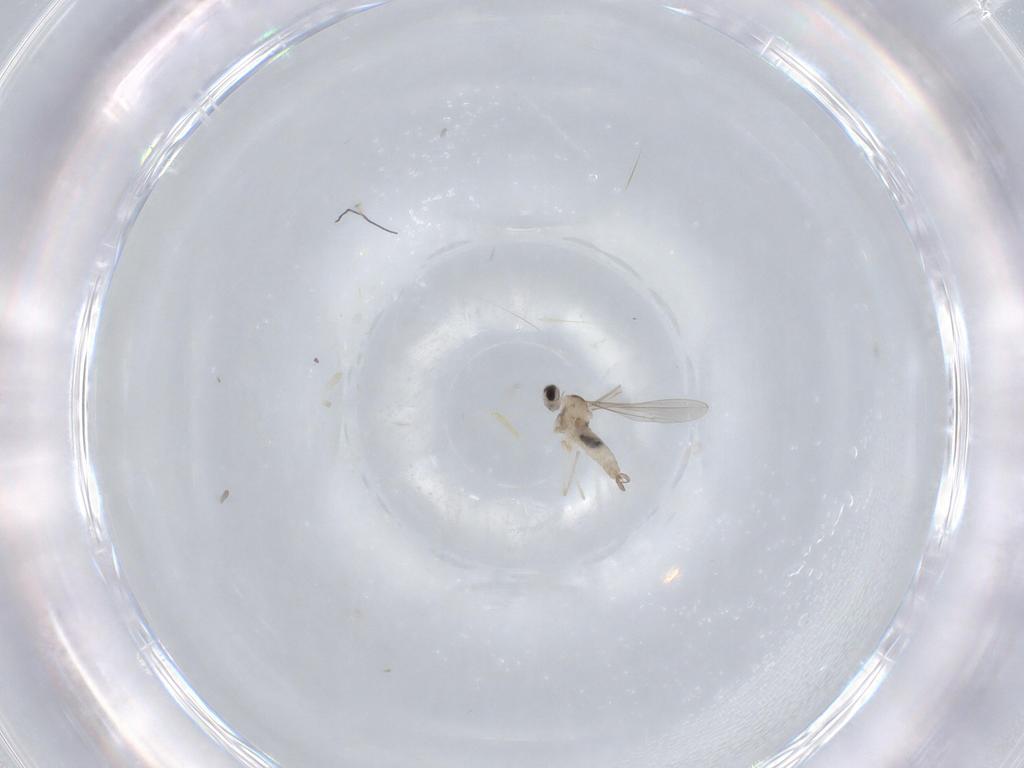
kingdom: Animalia
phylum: Arthropoda
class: Insecta
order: Diptera
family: Cecidomyiidae
